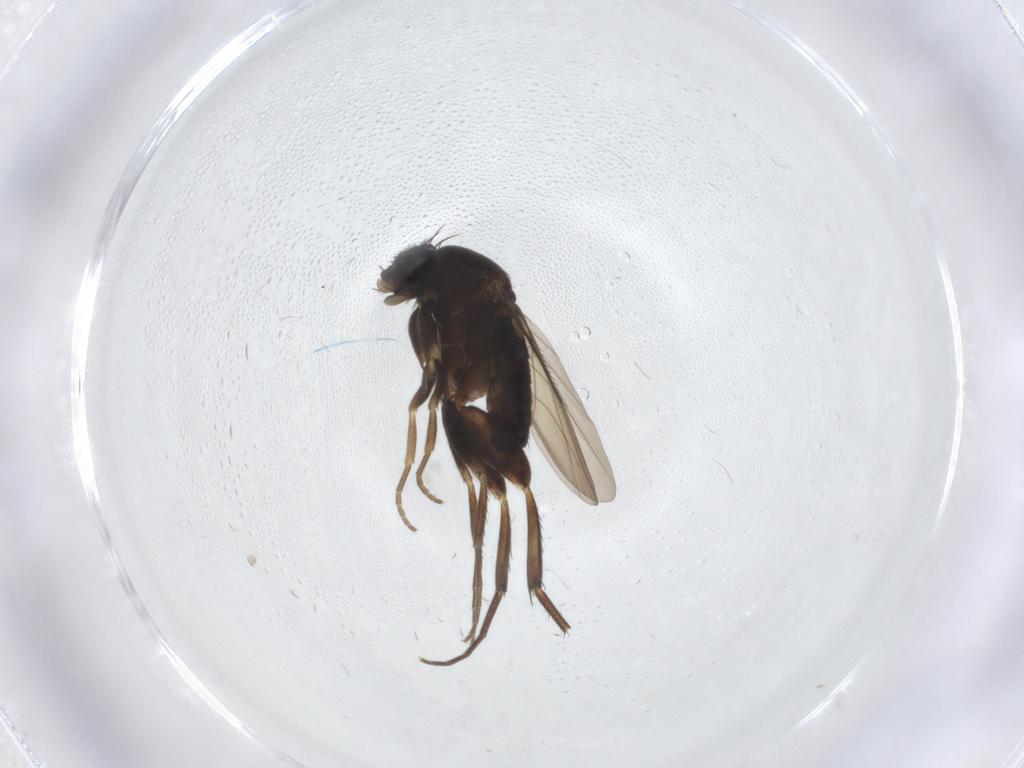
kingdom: Animalia
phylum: Arthropoda
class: Insecta
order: Diptera
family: Phoridae
